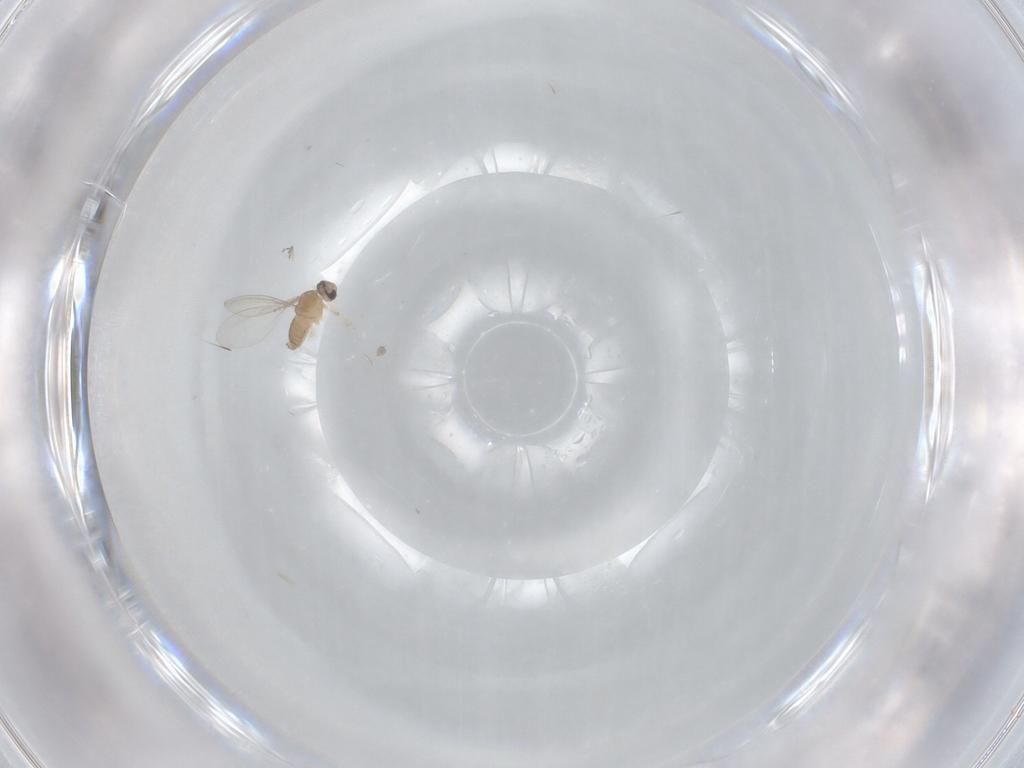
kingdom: Animalia
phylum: Arthropoda
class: Insecta
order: Diptera
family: Cecidomyiidae
